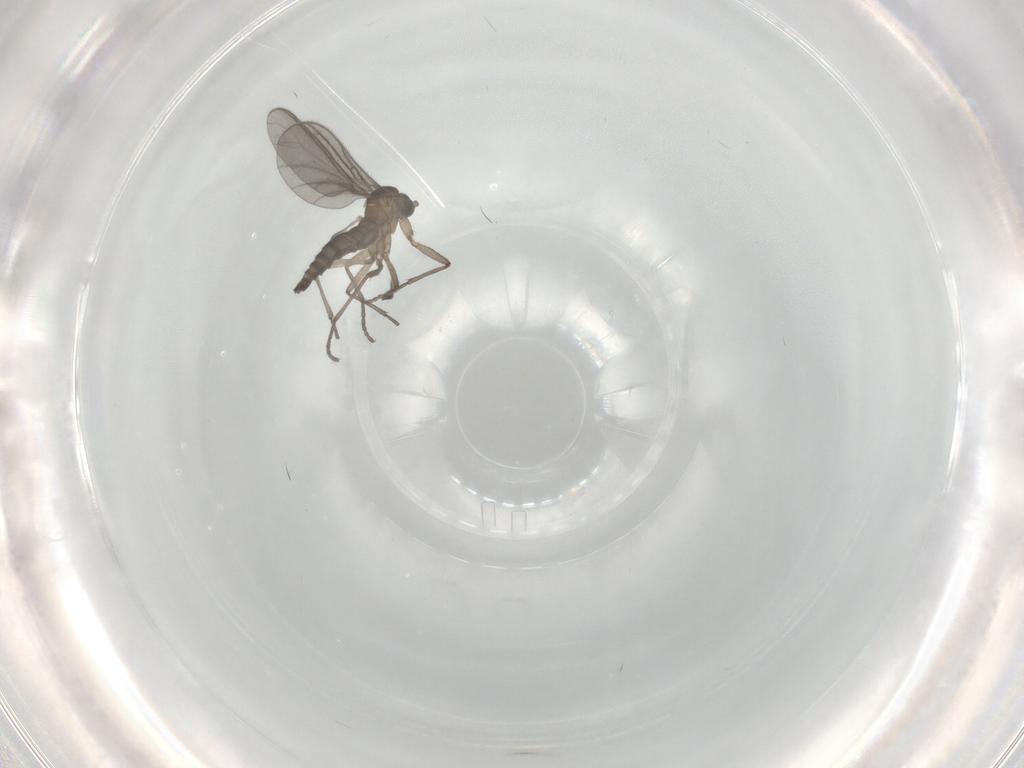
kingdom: Animalia
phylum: Arthropoda
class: Insecta
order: Diptera
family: Sciaridae
